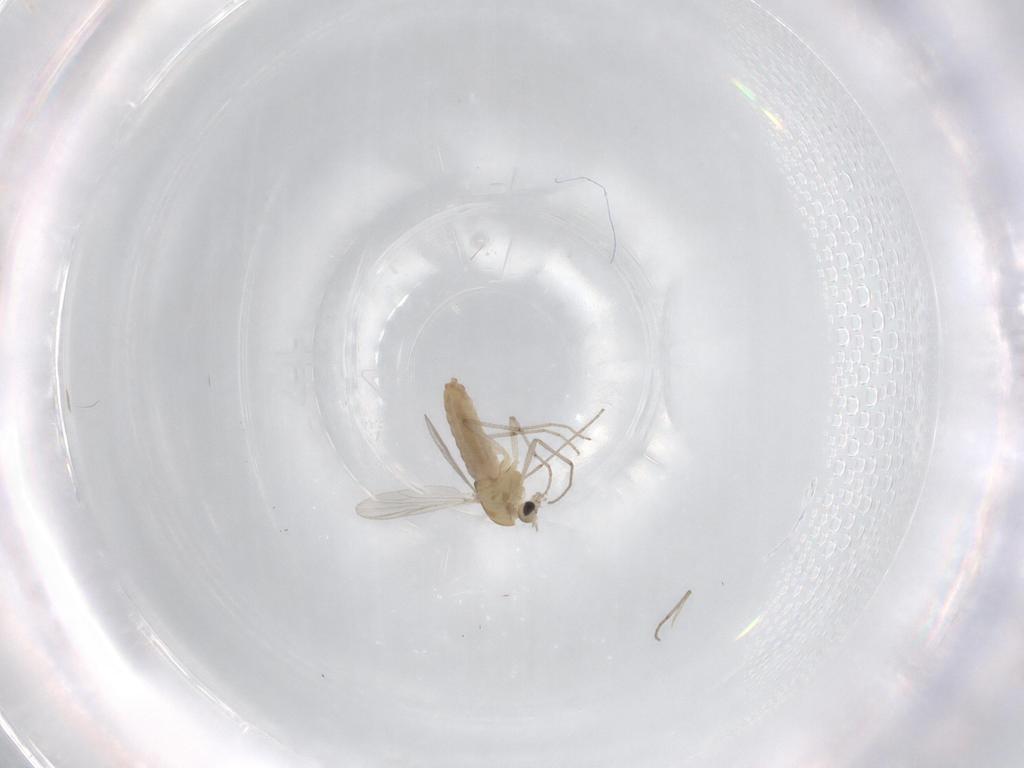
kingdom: Animalia
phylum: Arthropoda
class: Insecta
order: Diptera
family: Chironomidae
